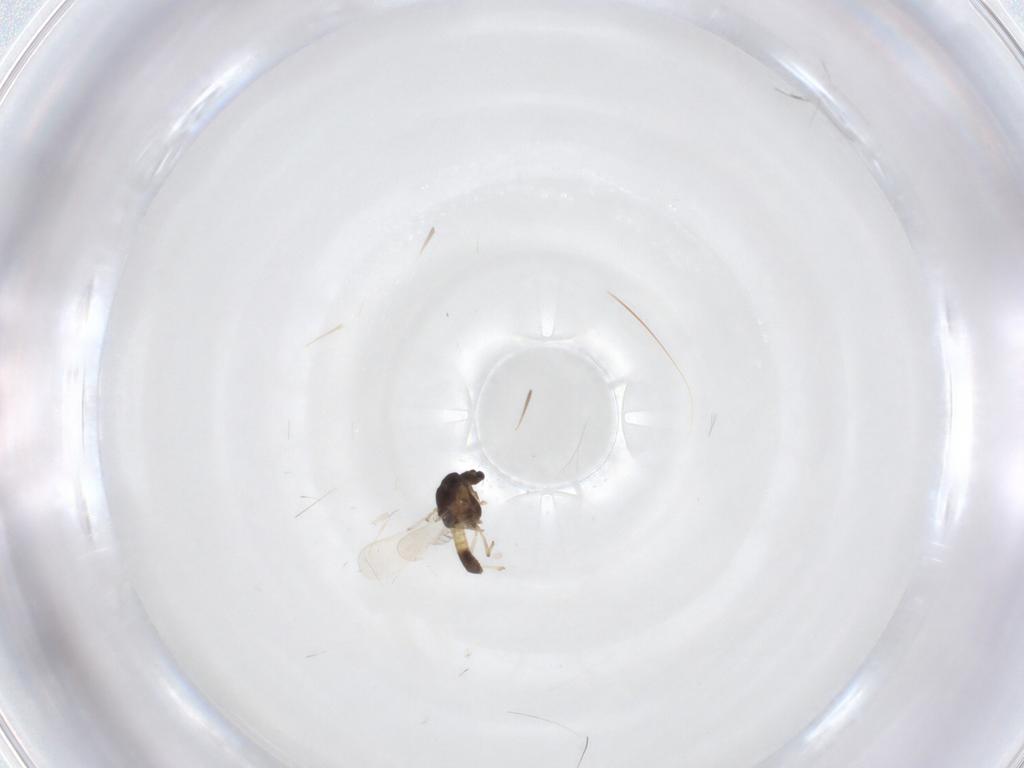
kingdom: Animalia
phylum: Arthropoda
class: Insecta
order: Diptera
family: Chironomidae
